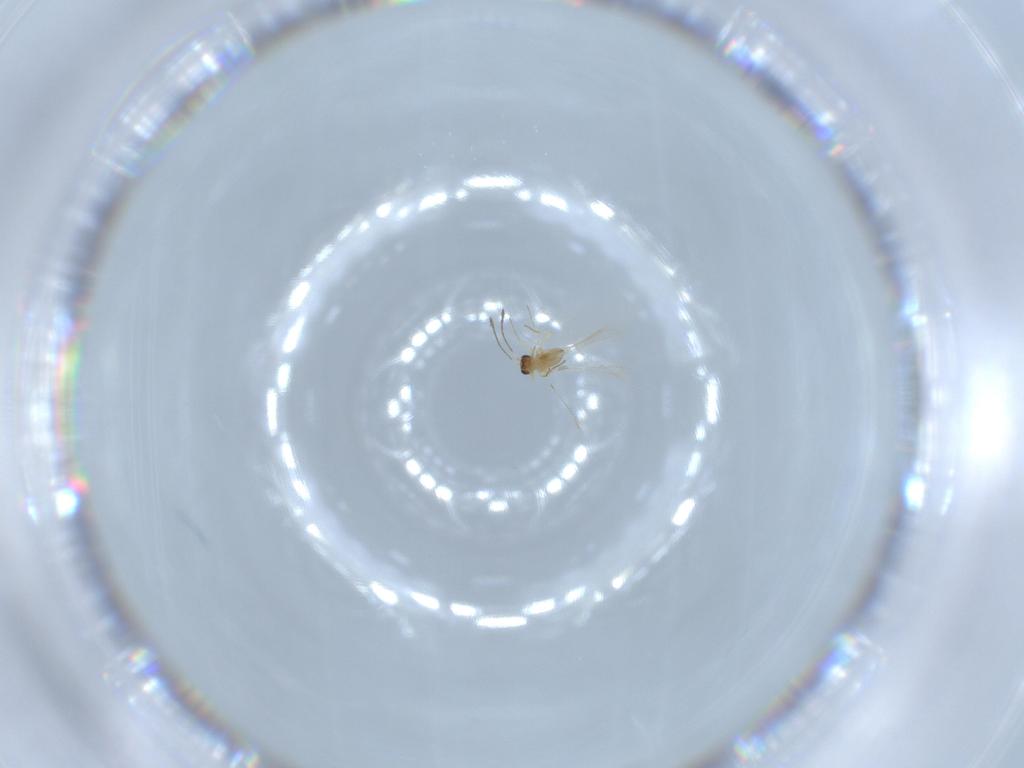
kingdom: Animalia
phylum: Arthropoda
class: Insecta
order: Hymenoptera
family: Mymaridae
